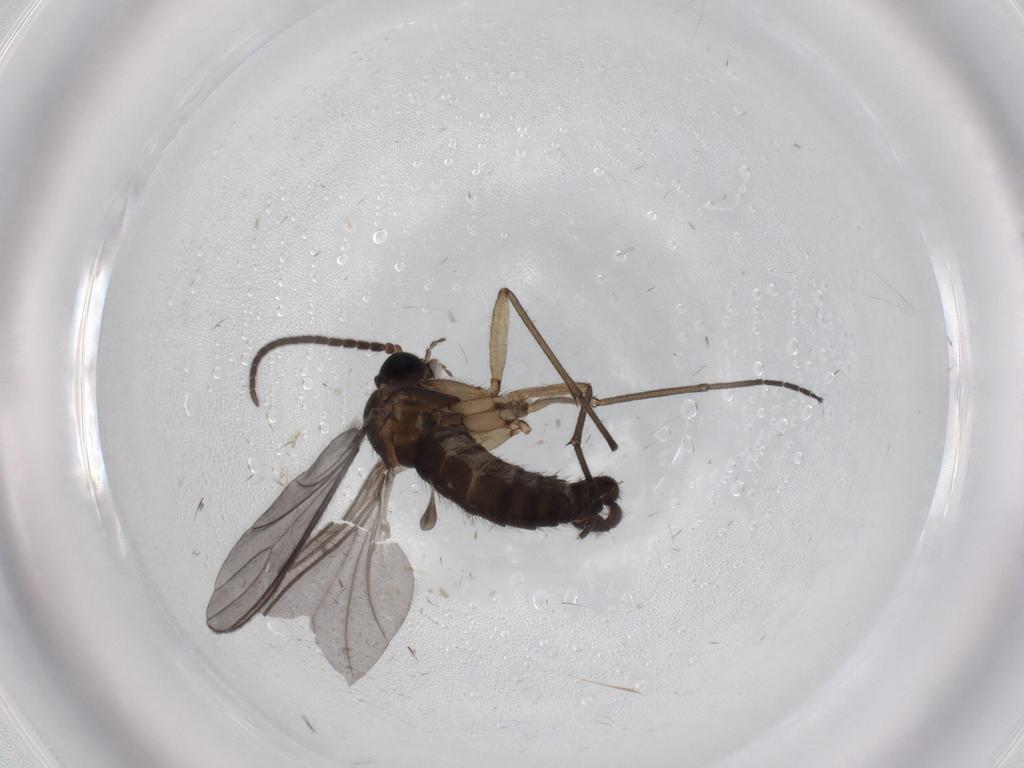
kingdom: Animalia
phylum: Arthropoda
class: Insecta
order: Diptera
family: Sciaridae
